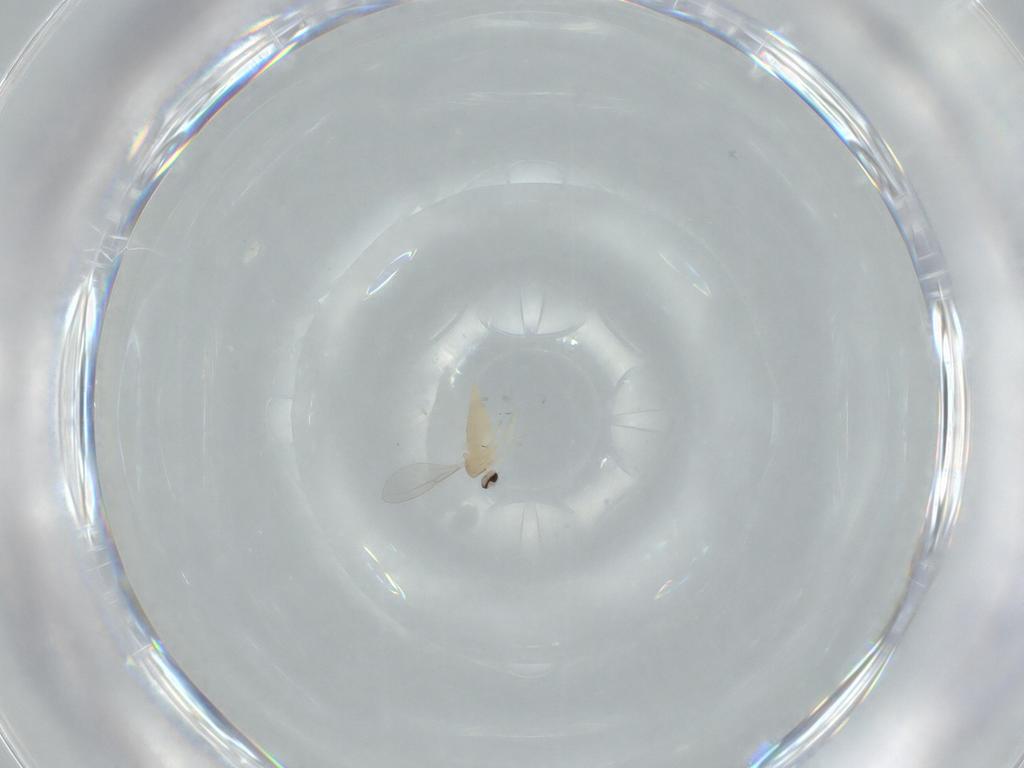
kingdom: Animalia
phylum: Arthropoda
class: Insecta
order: Diptera
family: Cecidomyiidae
